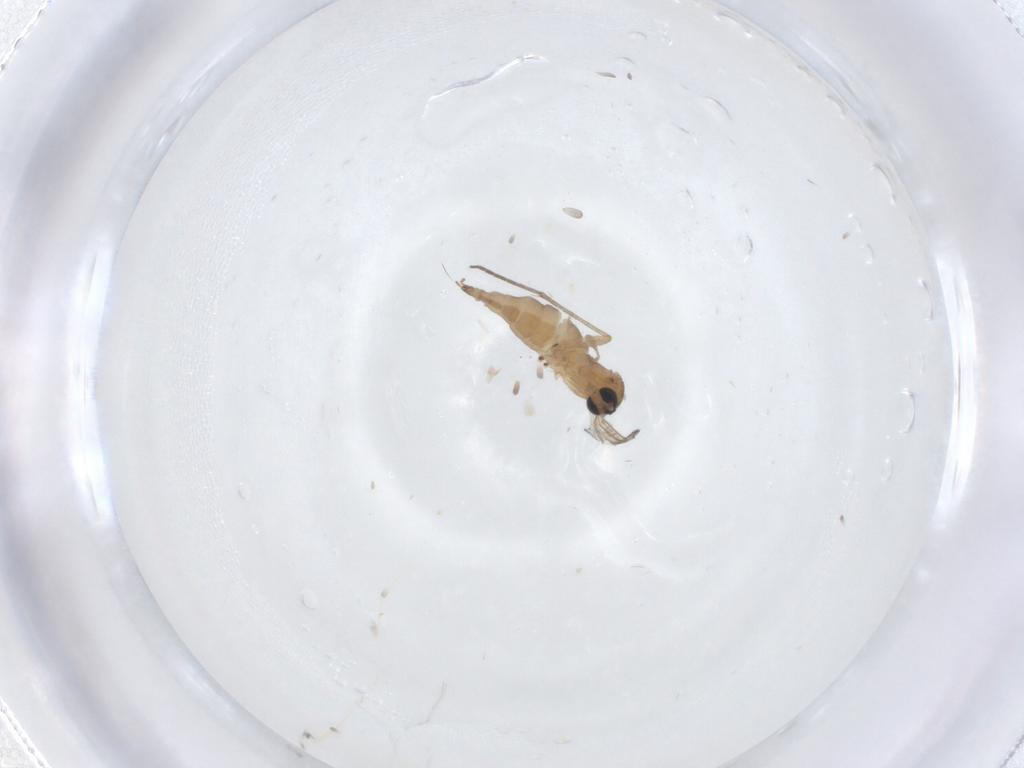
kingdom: Animalia
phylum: Arthropoda
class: Insecta
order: Diptera
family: Sciaridae
